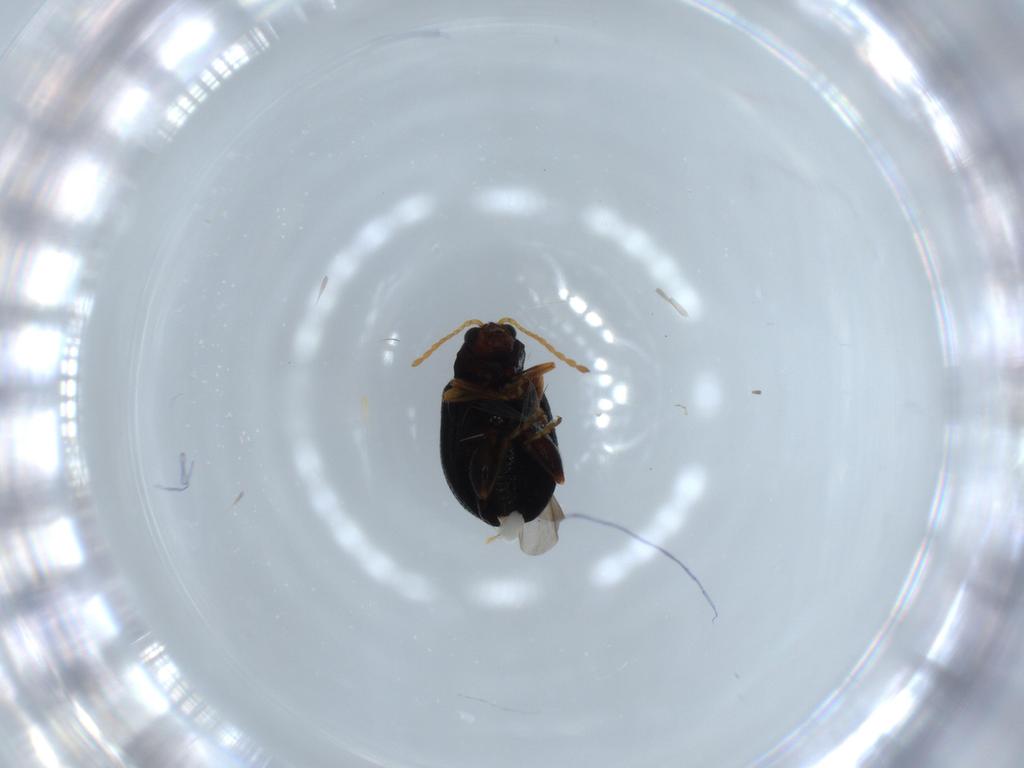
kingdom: Animalia
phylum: Arthropoda
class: Insecta
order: Coleoptera
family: Chrysomelidae
